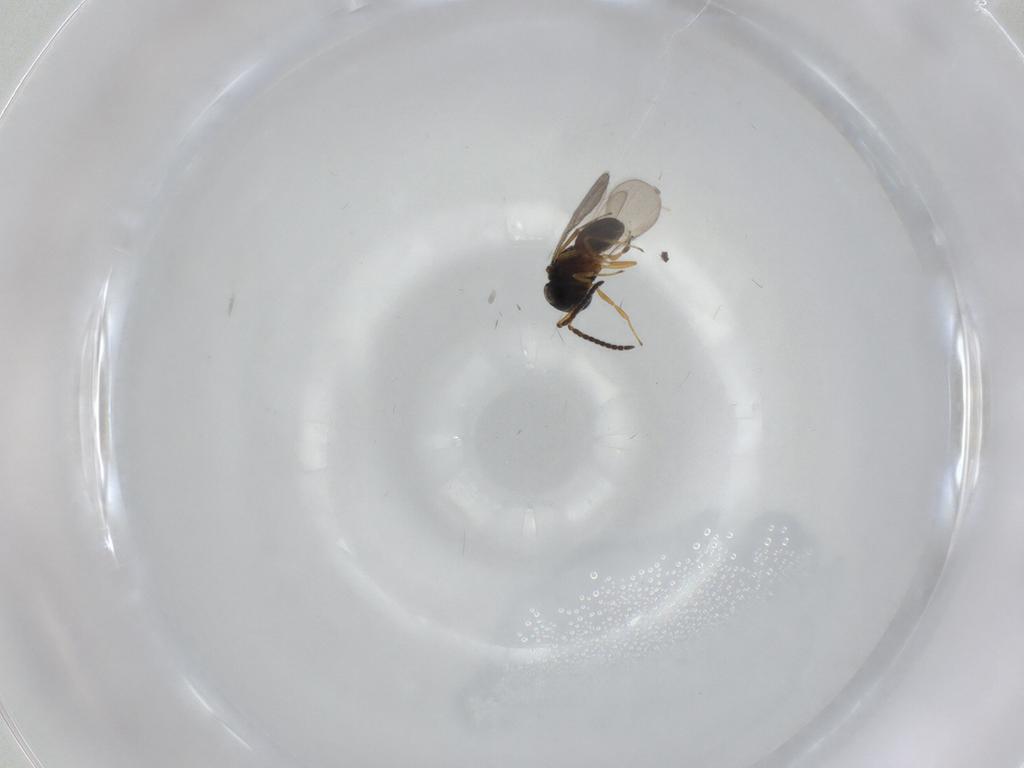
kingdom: Animalia
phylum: Arthropoda
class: Insecta
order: Hymenoptera
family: Scelionidae
